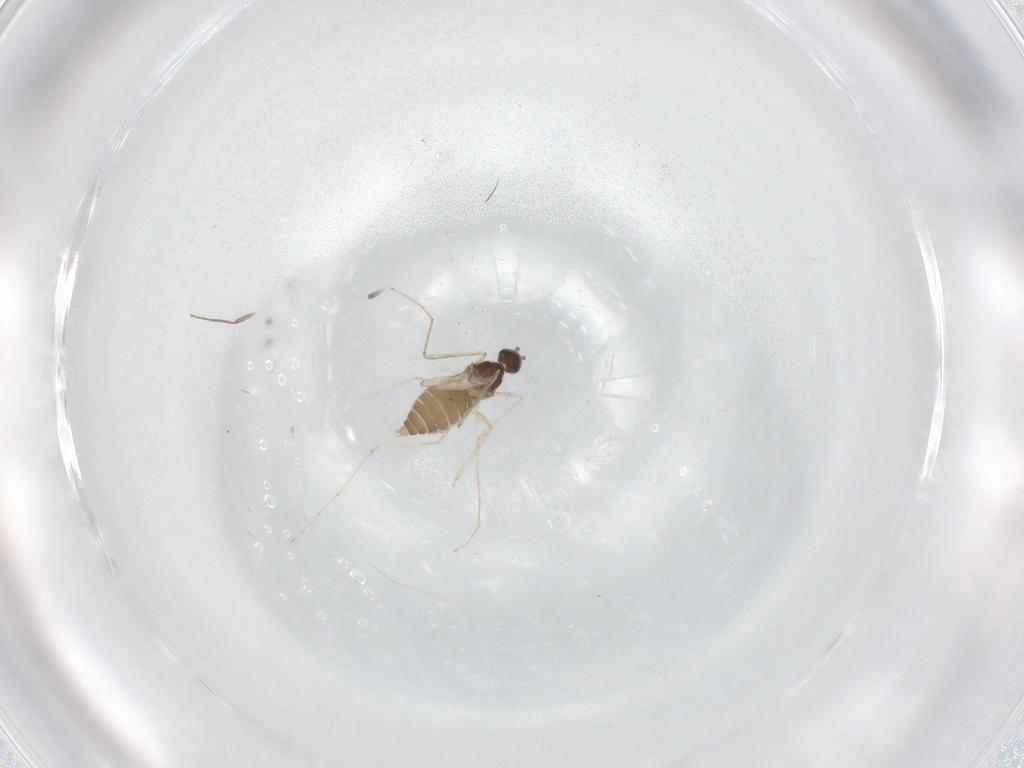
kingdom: Animalia
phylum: Arthropoda
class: Insecta
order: Diptera
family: Cecidomyiidae
